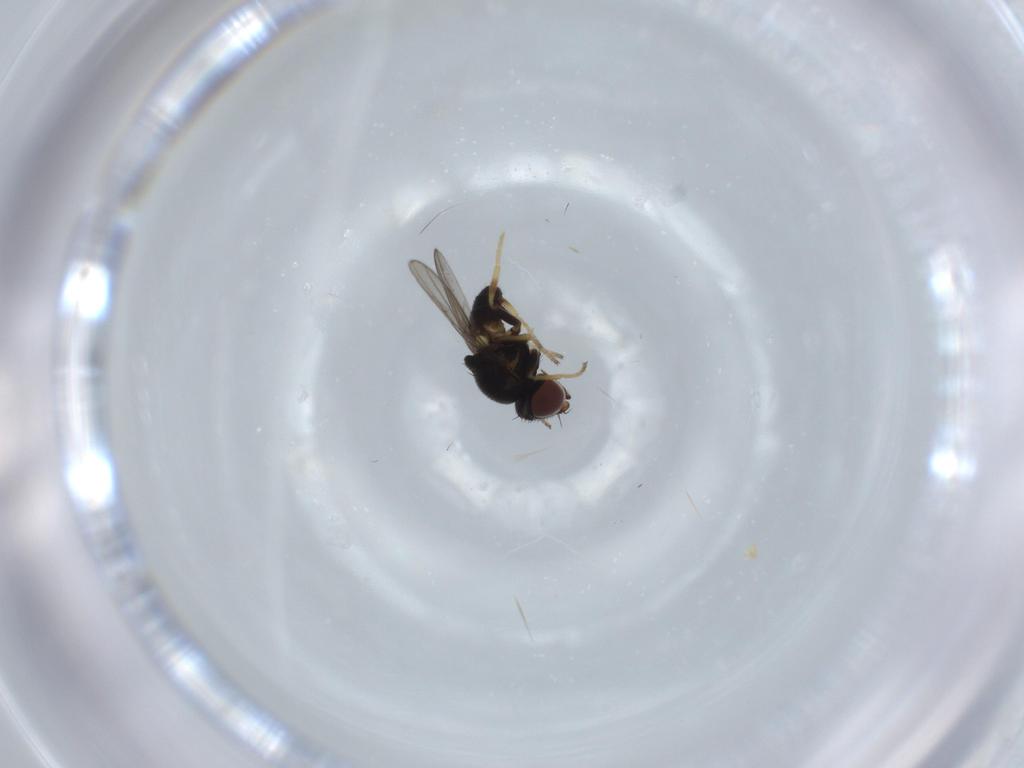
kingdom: Animalia
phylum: Arthropoda
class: Insecta
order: Diptera
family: Chloropidae
